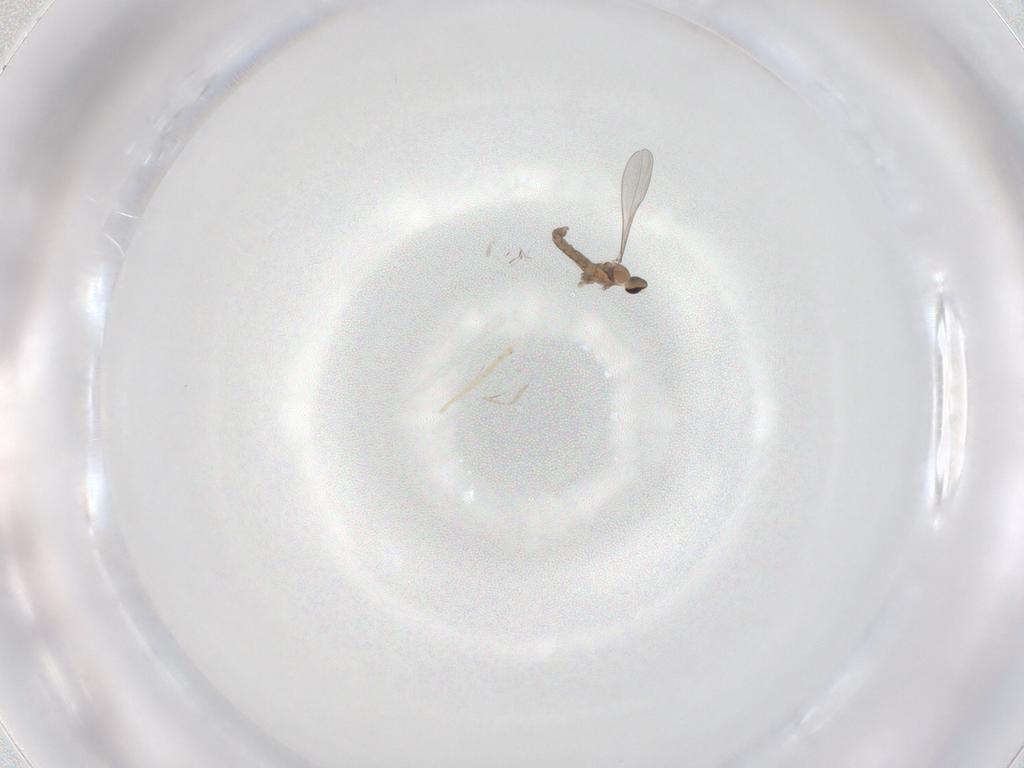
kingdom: Animalia
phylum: Arthropoda
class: Insecta
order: Diptera
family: Cecidomyiidae
